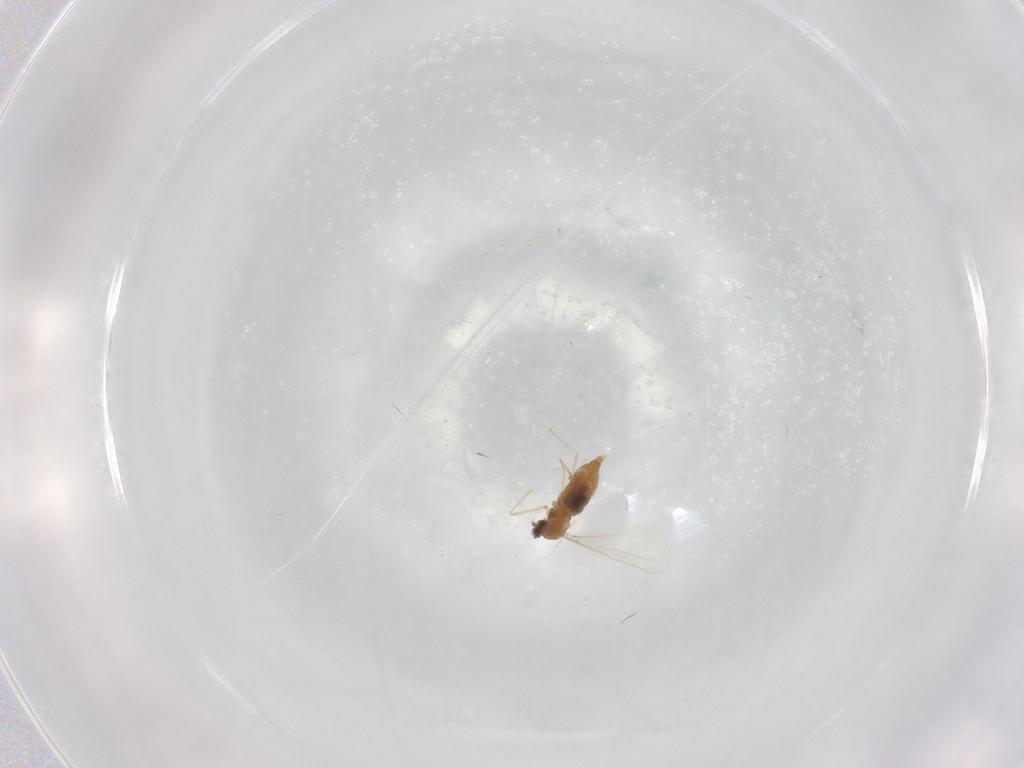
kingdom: Animalia
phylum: Arthropoda
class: Insecta
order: Diptera
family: Cecidomyiidae
